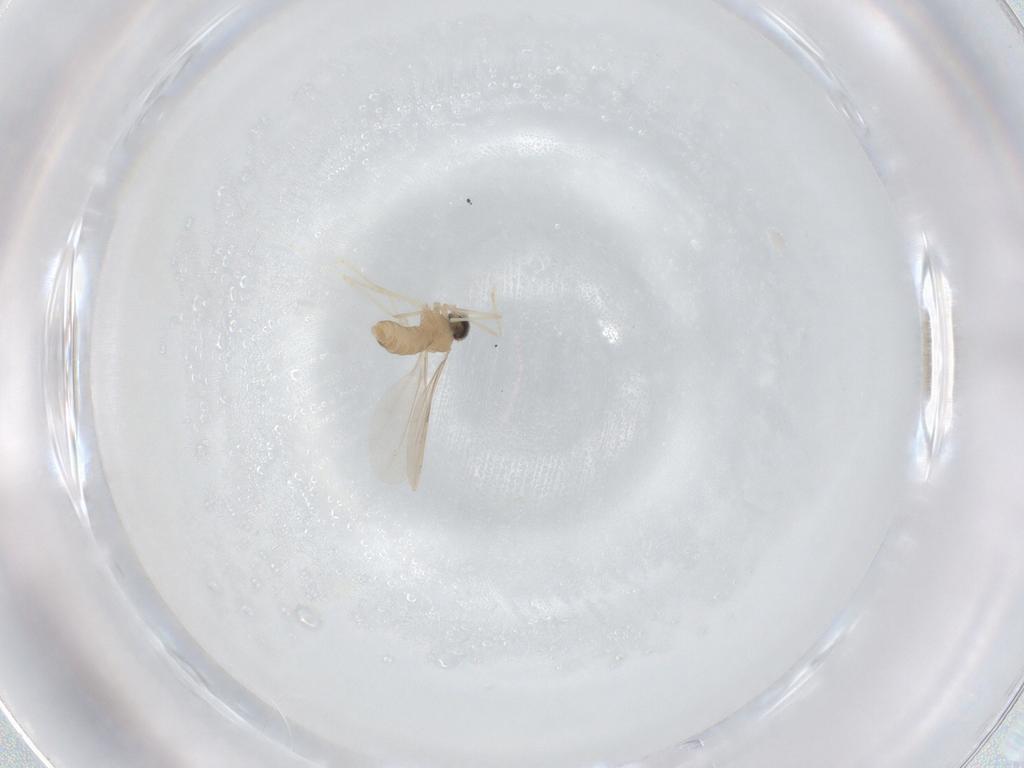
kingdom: Animalia
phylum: Arthropoda
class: Insecta
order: Diptera
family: Cecidomyiidae
